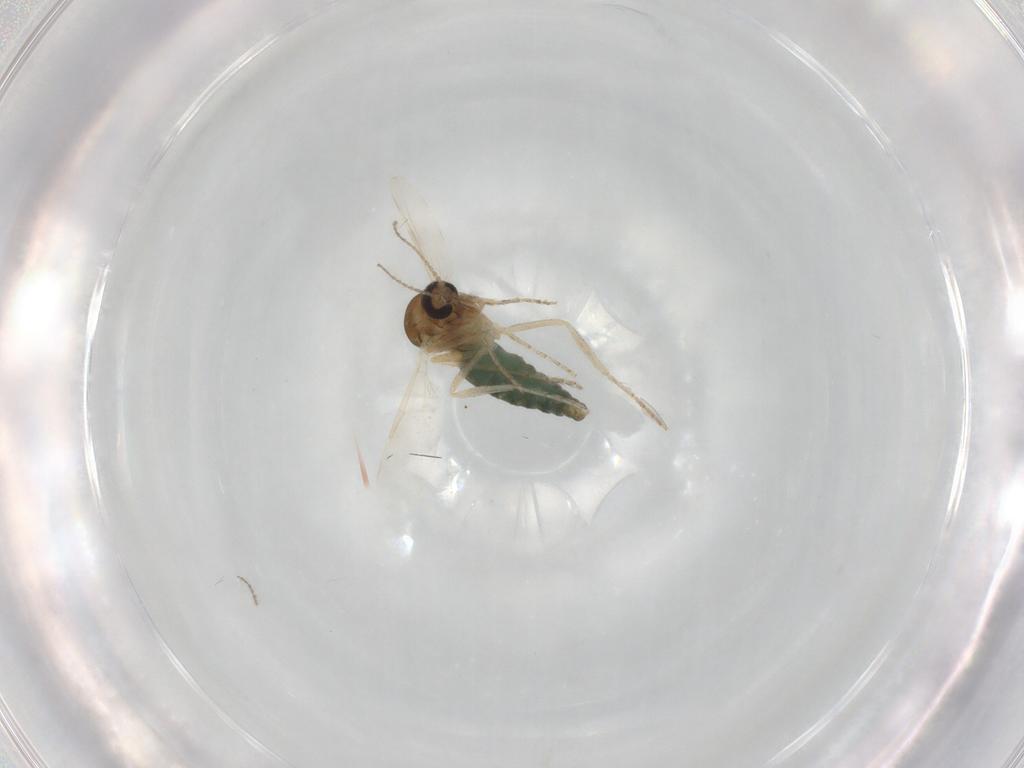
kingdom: Animalia
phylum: Arthropoda
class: Insecta
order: Diptera
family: Ceratopogonidae
